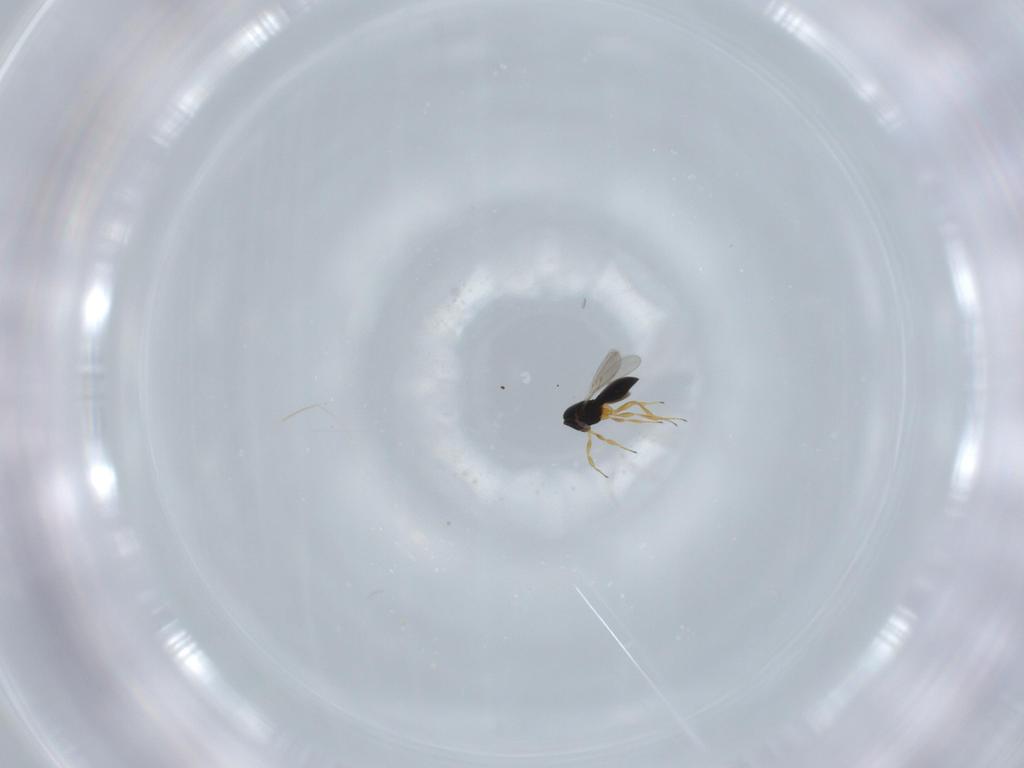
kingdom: Animalia
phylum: Arthropoda
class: Insecta
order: Hymenoptera
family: Scelionidae
